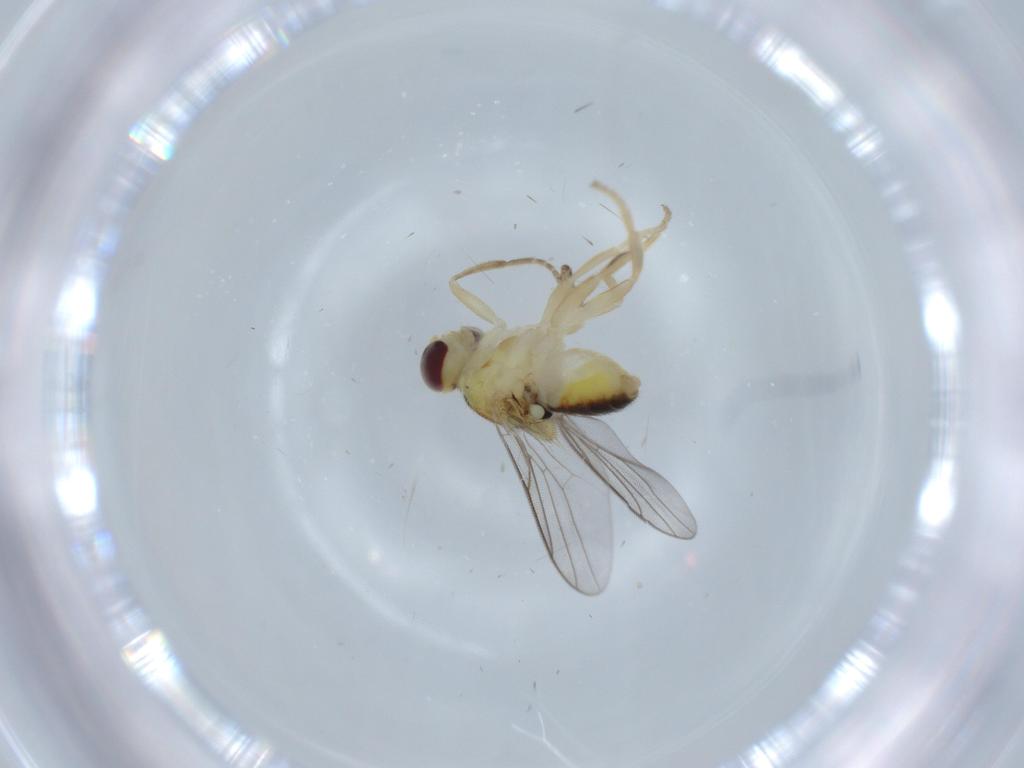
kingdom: Animalia
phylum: Arthropoda
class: Insecta
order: Diptera
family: Chloropidae
